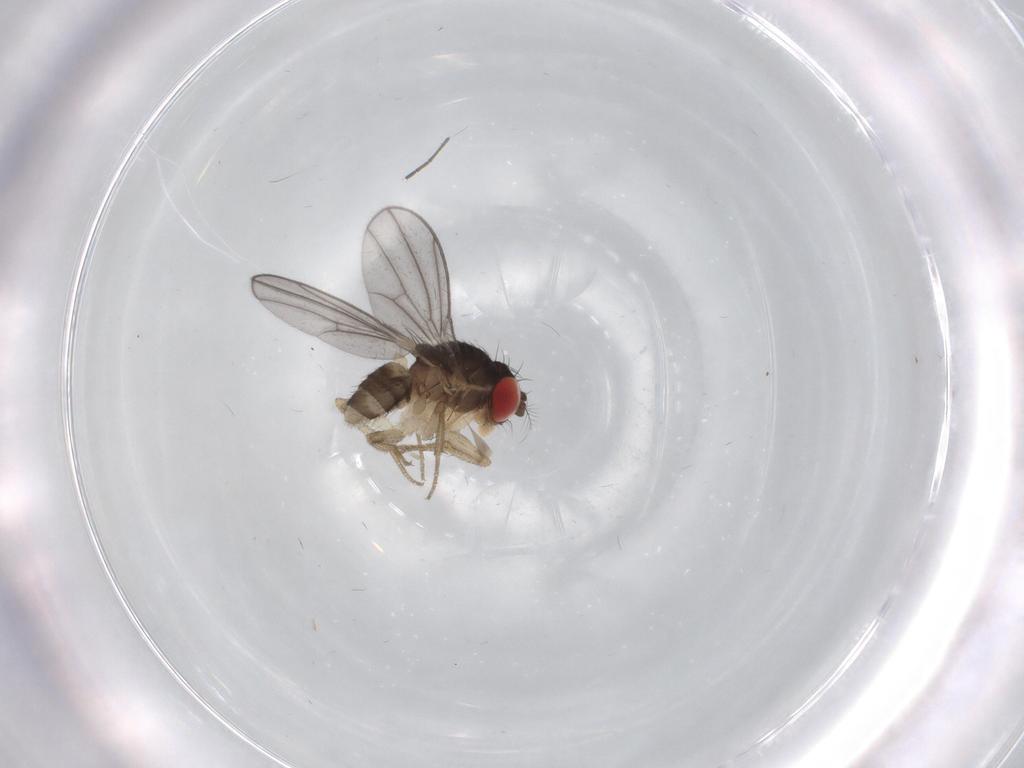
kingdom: Animalia
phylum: Arthropoda
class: Insecta
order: Diptera
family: Drosophilidae
